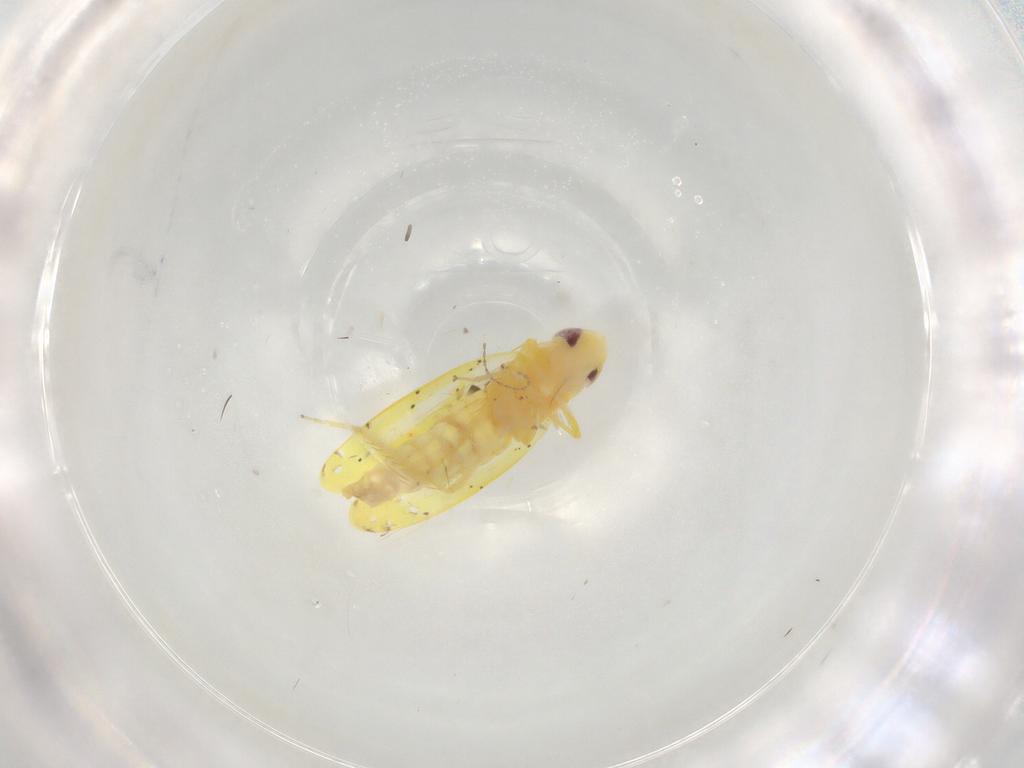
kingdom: Animalia
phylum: Arthropoda
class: Insecta
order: Hemiptera
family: Cicadellidae
